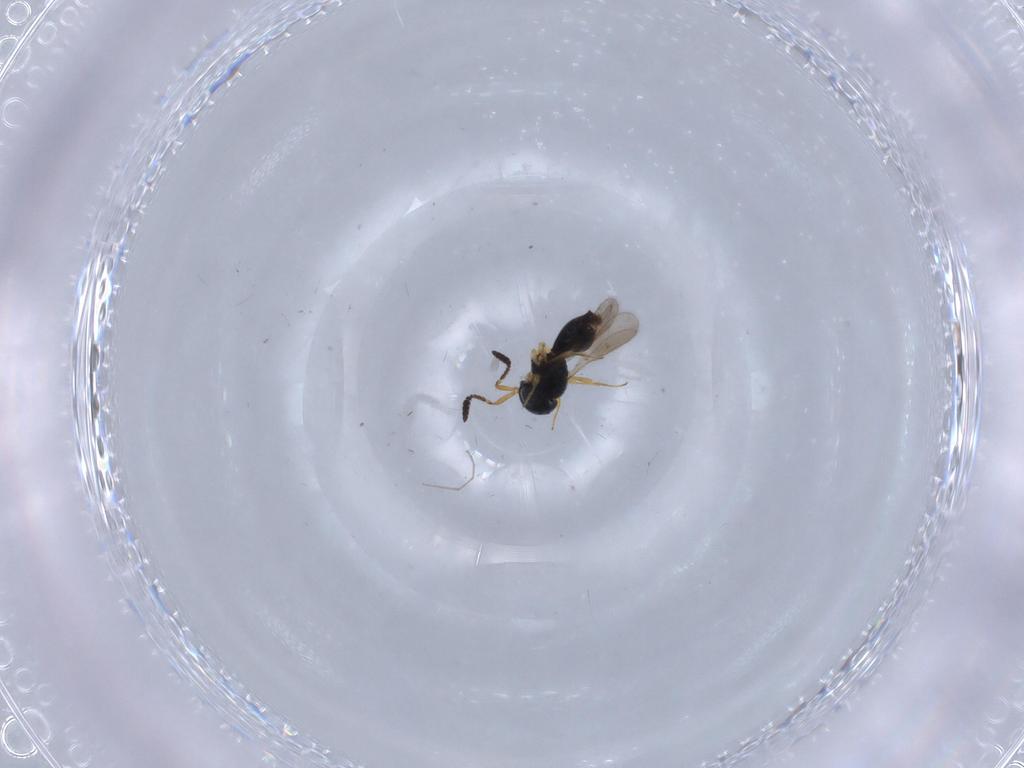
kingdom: Animalia
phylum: Arthropoda
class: Insecta
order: Hymenoptera
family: Scelionidae
